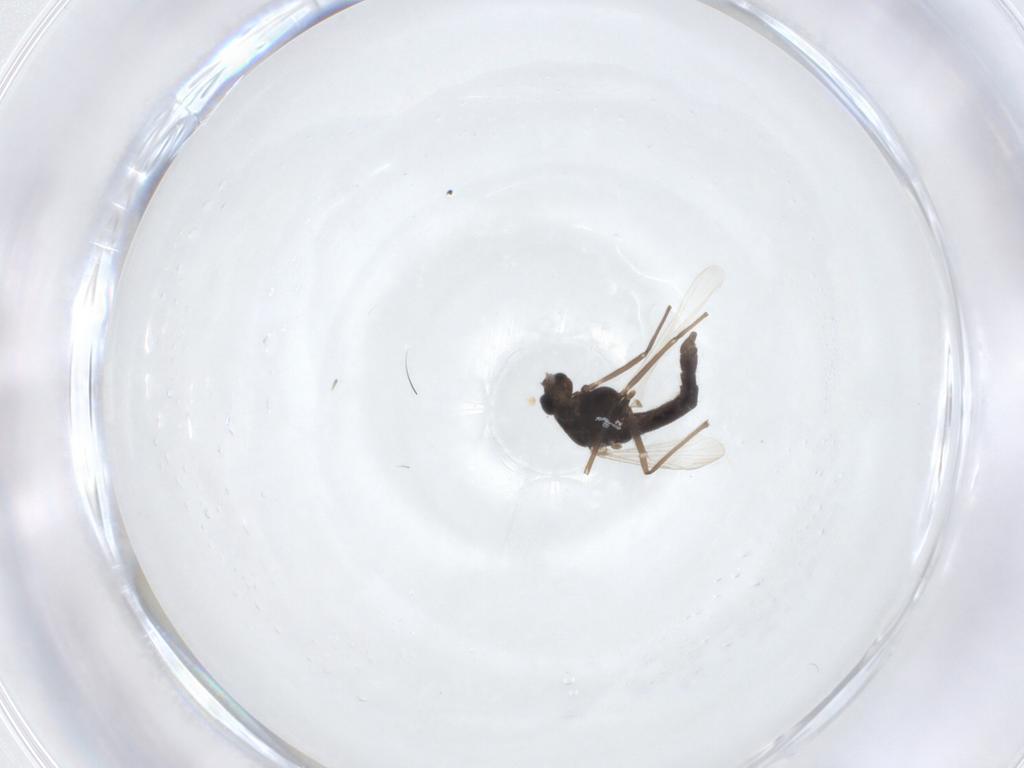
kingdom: Animalia
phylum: Arthropoda
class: Insecta
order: Diptera
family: Chironomidae
